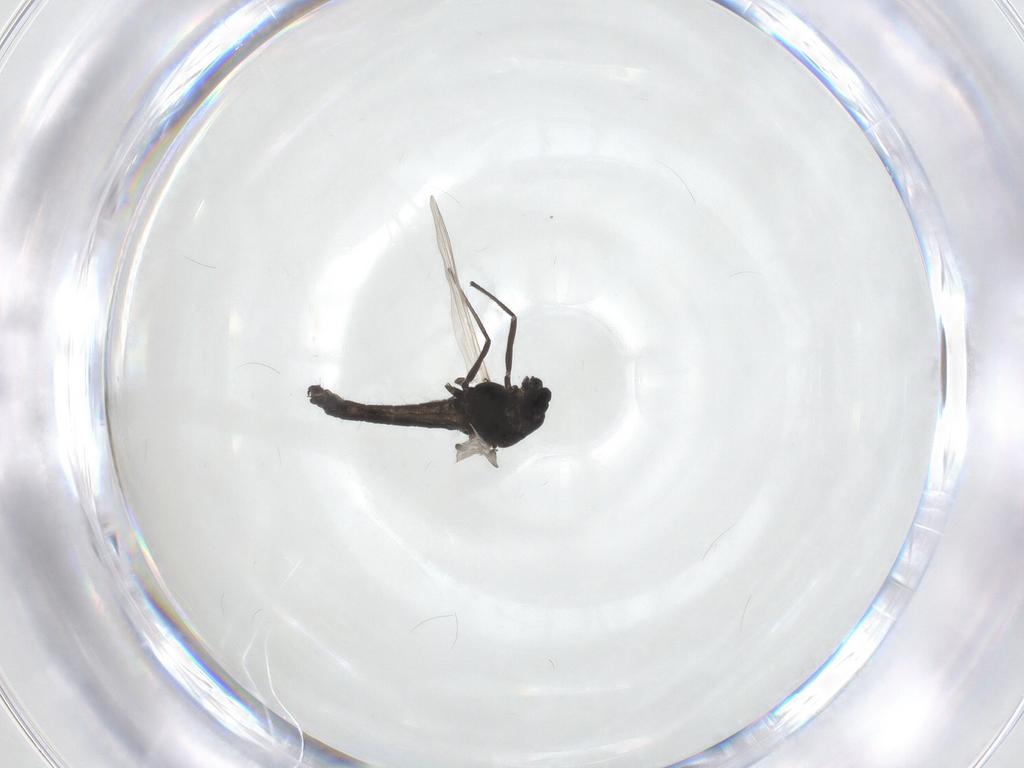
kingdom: Animalia
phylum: Arthropoda
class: Insecta
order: Diptera
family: Chironomidae
